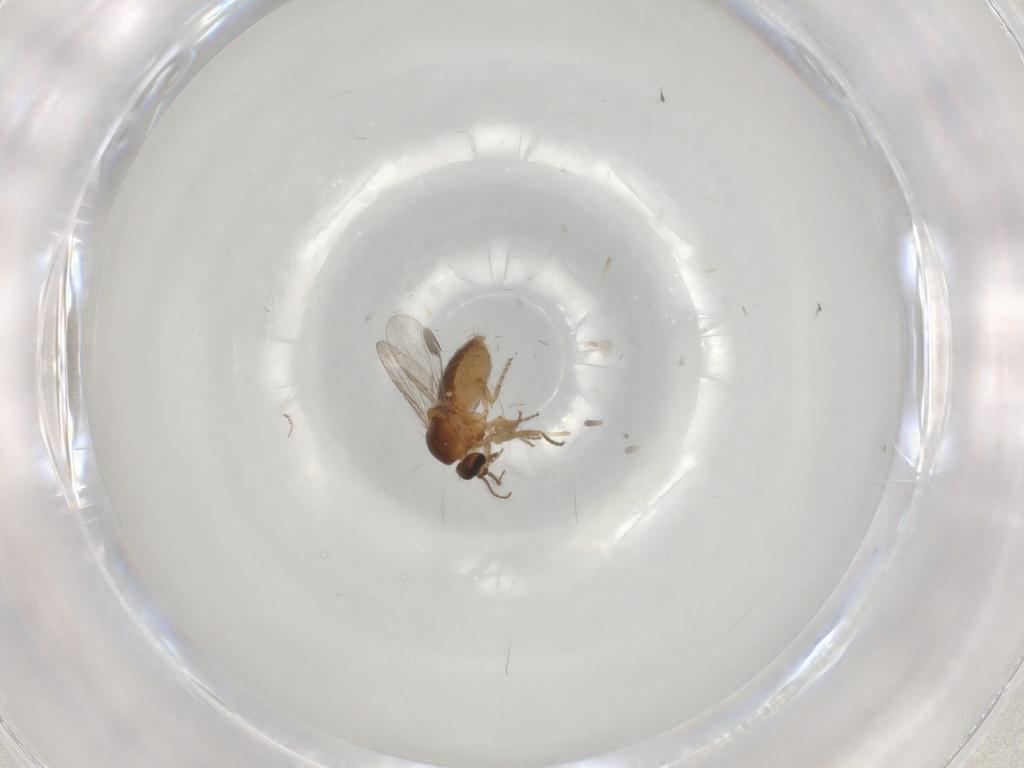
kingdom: Animalia
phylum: Arthropoda
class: Insecta
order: Diptera
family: Ceratopogonidae
